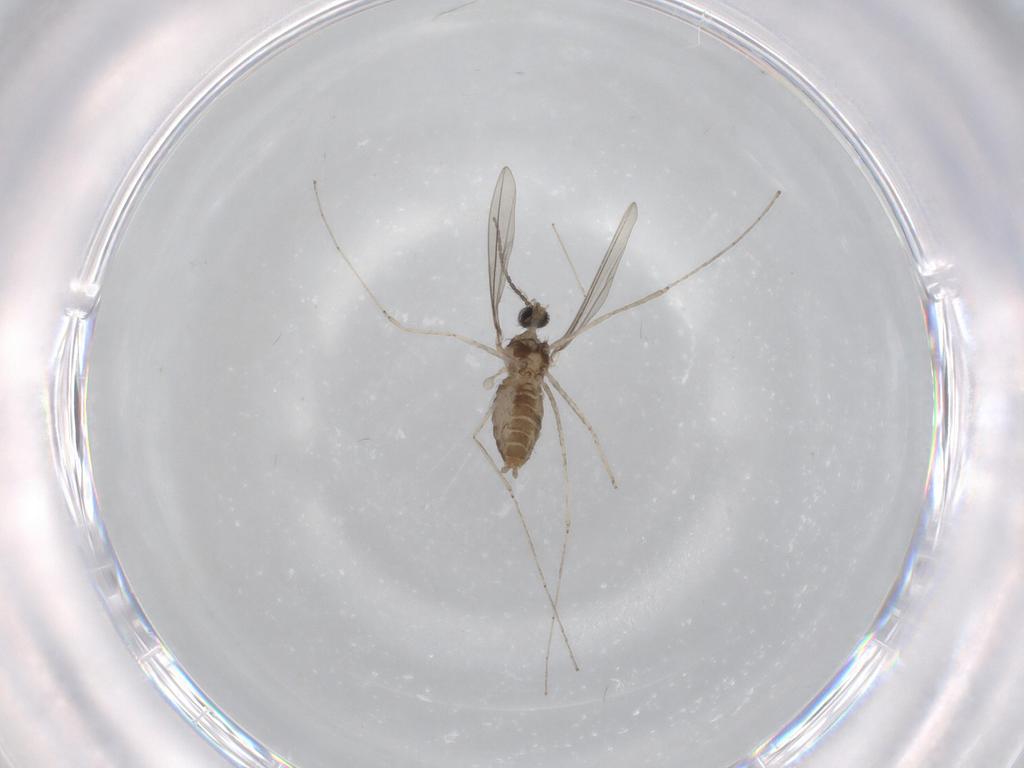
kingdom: Animalia
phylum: Arthropoda
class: Insecta
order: Diptera
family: Cecidomyiidae
